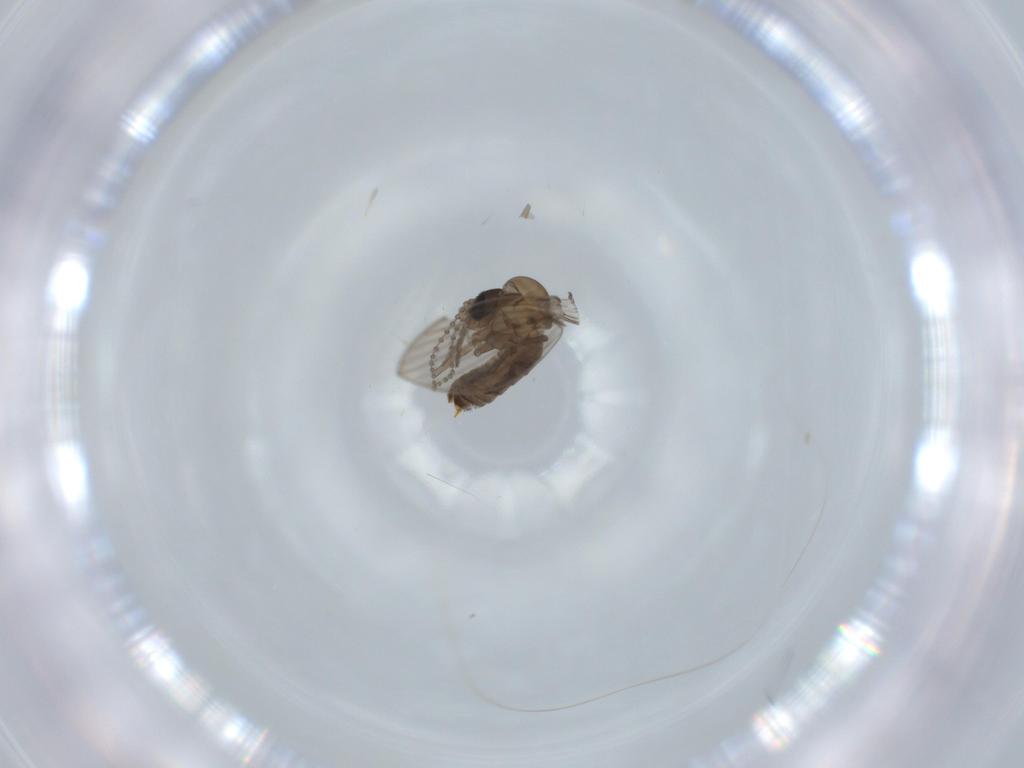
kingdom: Animalia
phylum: Arthropoda
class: Insecta
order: Diptera
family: Psychodidae
